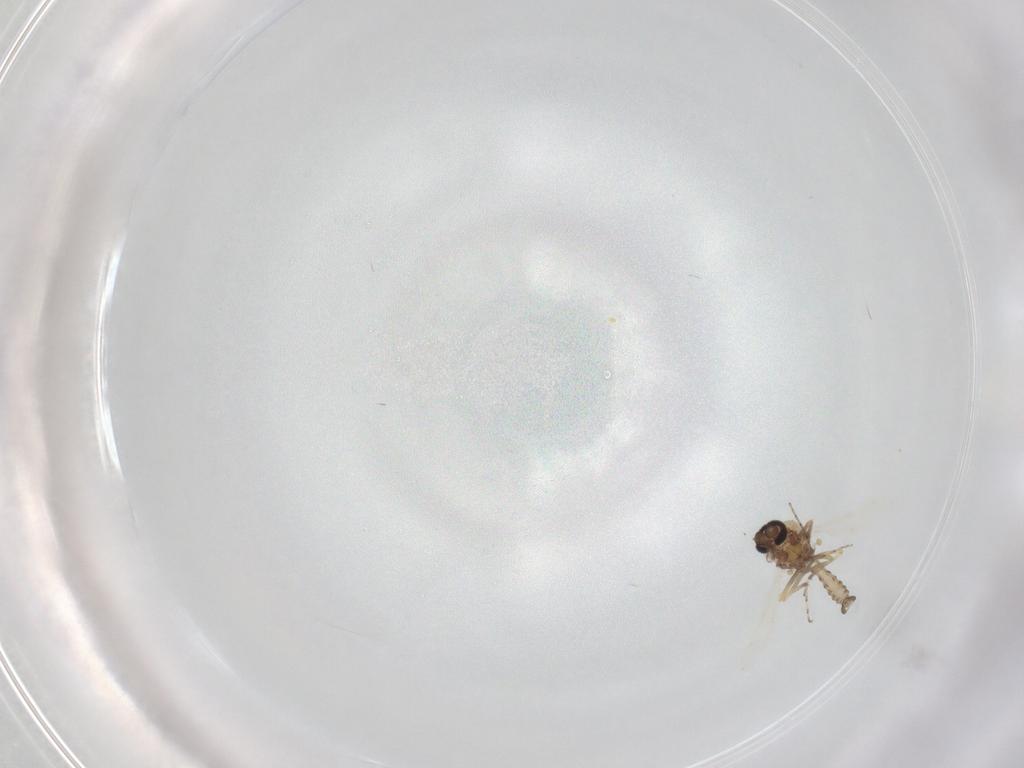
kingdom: Animalia
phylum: Arthropoda
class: Insecta
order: Diptera
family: Ceratopogonidae
